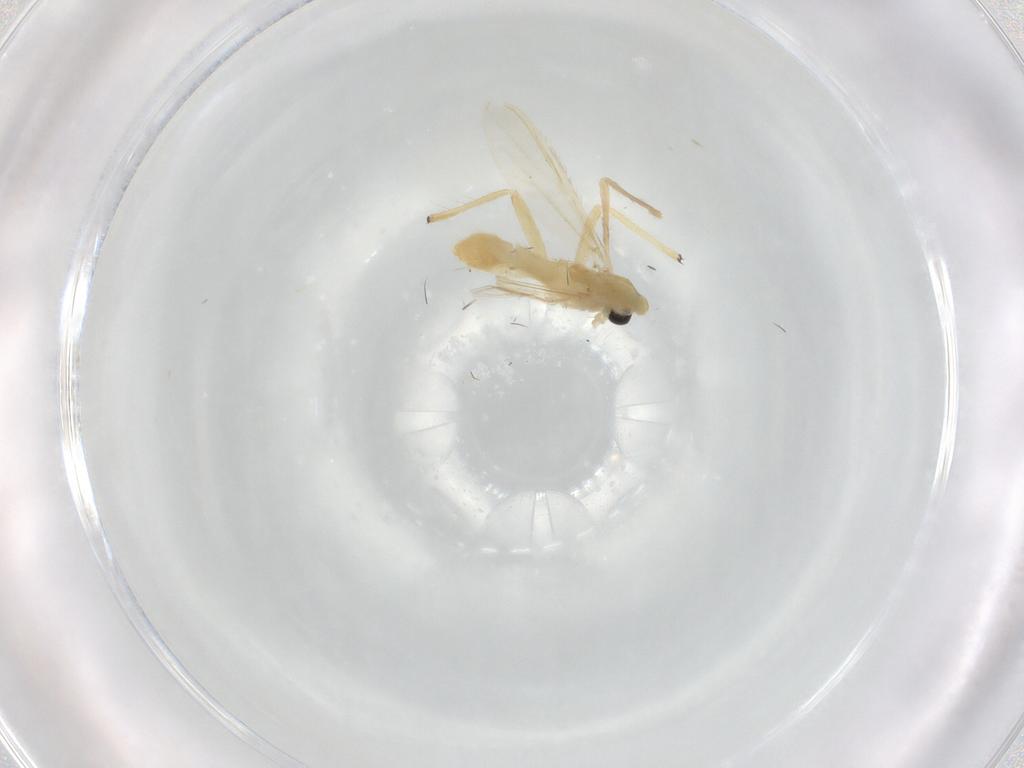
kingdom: Animalia
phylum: Arthropoda
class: Insecta
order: Diptera
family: Chironomidae
